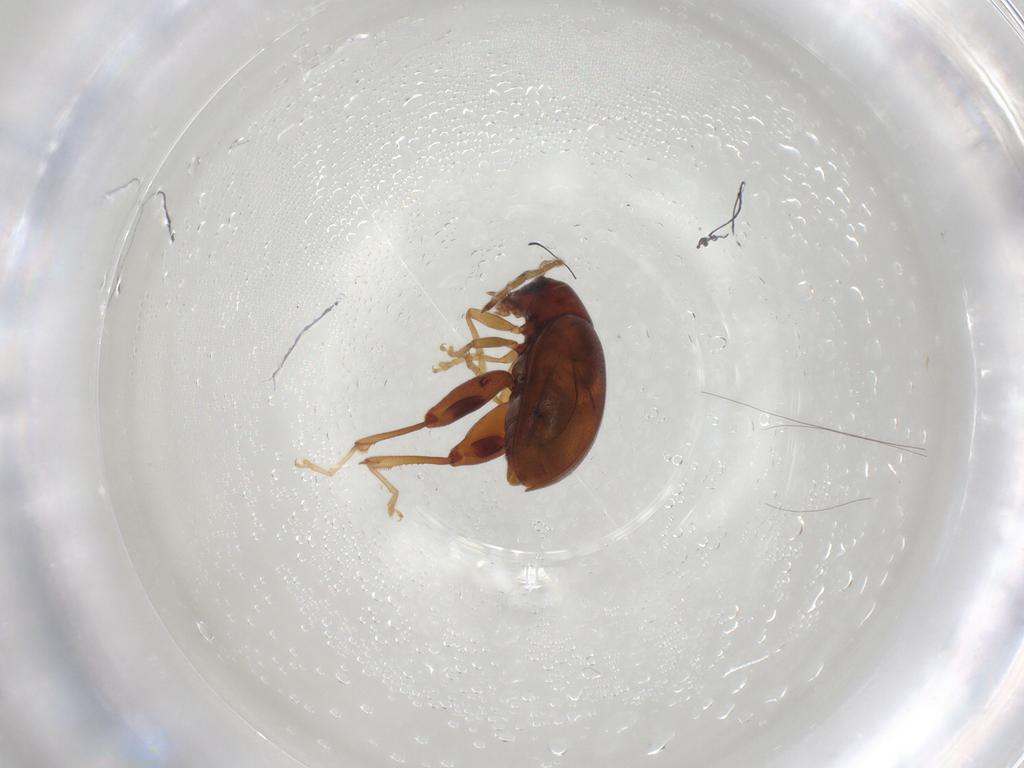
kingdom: Animalia
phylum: Arthropoda
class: Insecta
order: Coleoptera
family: Chrysomelidae
